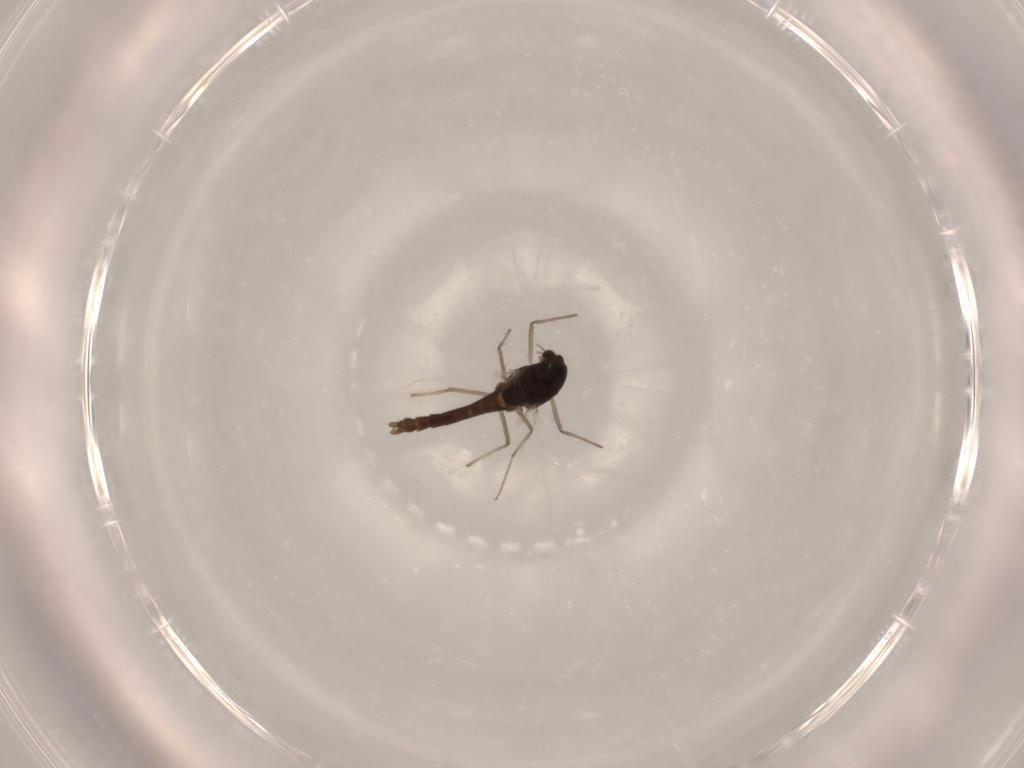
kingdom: Animalia
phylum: Arthropoda
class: Insecta
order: Diptera
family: Chironomidae
